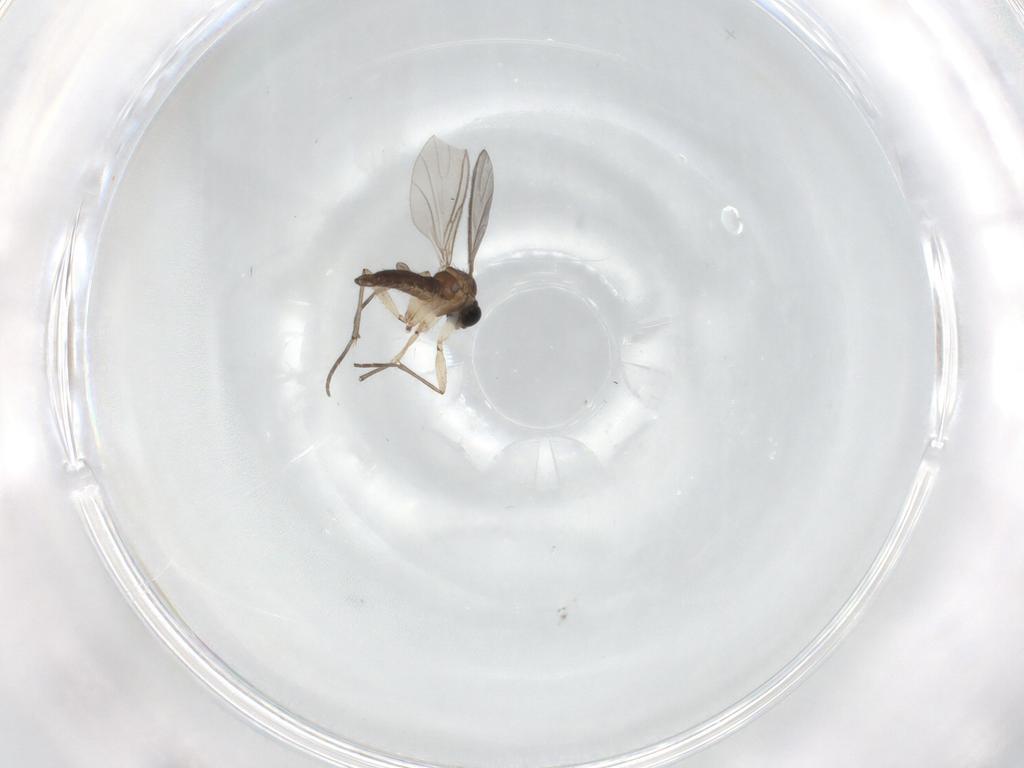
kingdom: Animalia
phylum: Arthropoda
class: Insecta
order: Diptera
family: Sciaridae
